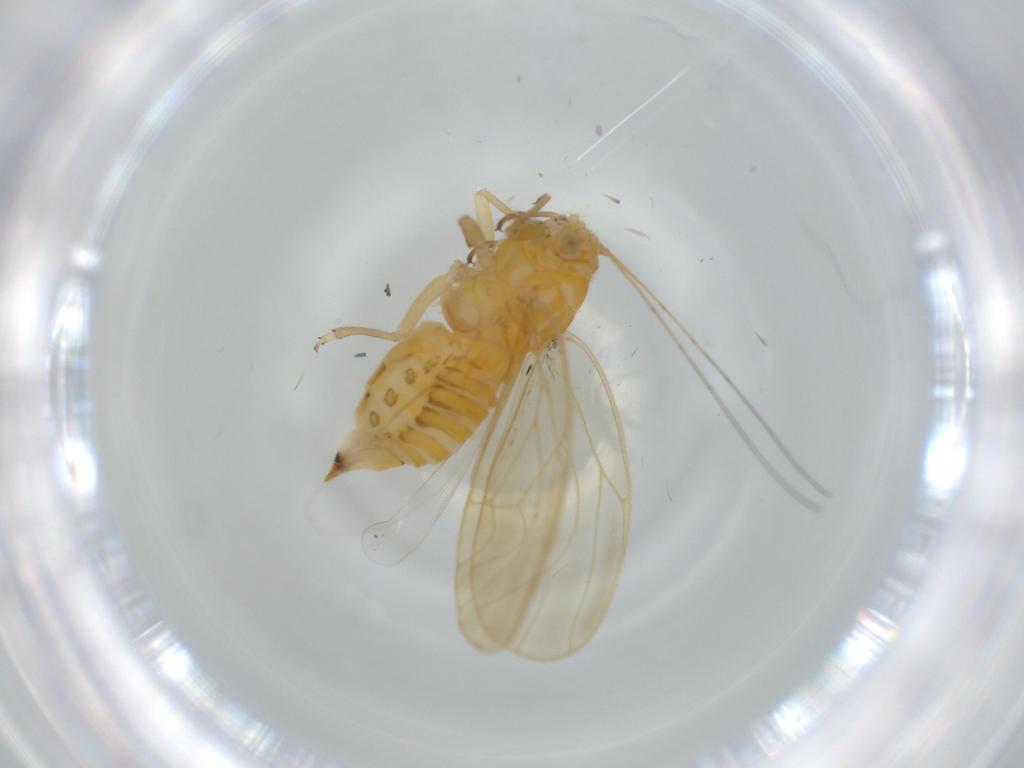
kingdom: Animalia
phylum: Arthropoda
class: Insecta
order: Hemiptera
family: Psyllidae
